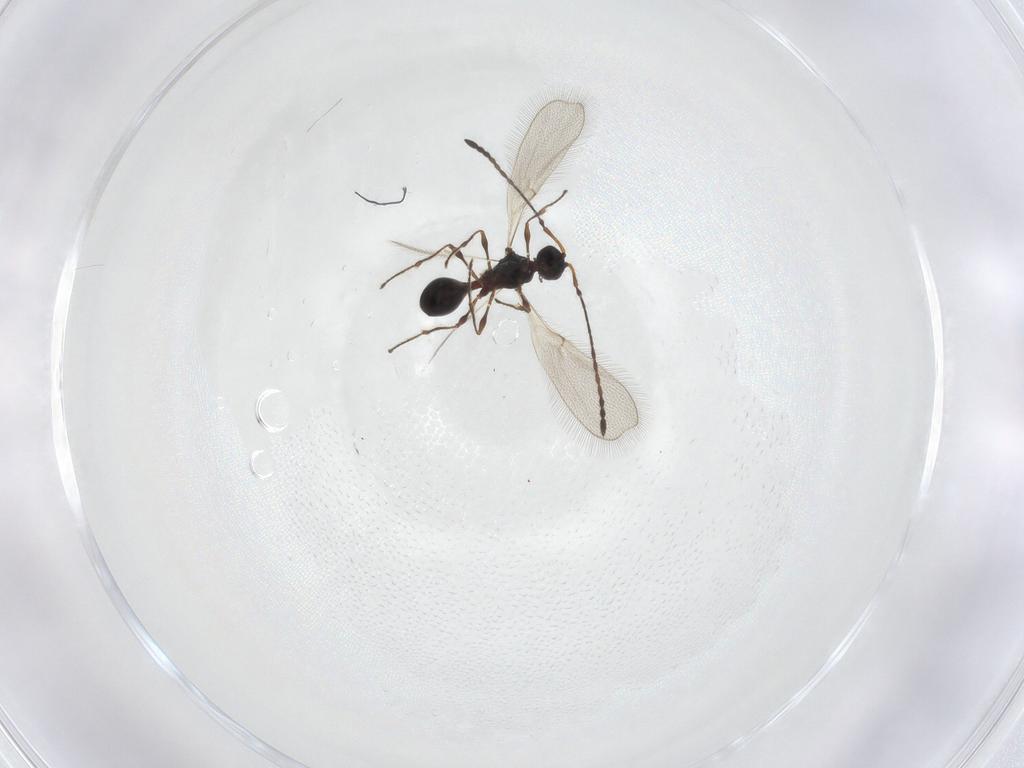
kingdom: Animalia
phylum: Arthropoda
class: Insecta
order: Hymenoptera
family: Diapriidae
